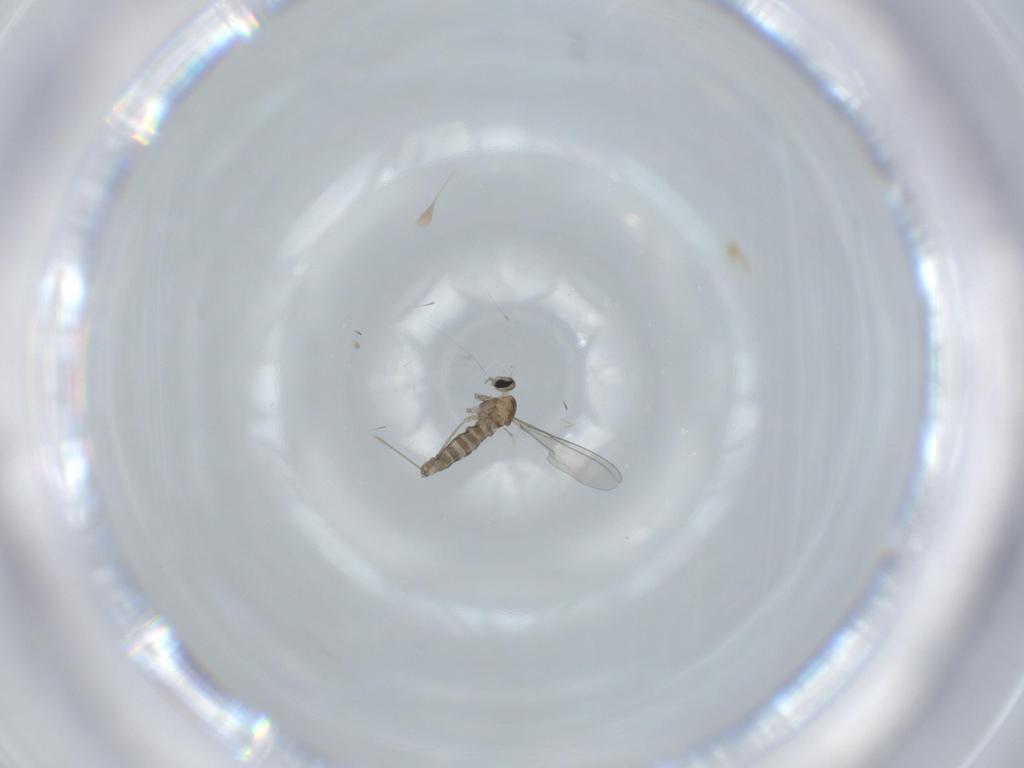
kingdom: Animalia
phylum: Arthropoda
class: Insecta
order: Diptera
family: Cecidomyiidae
